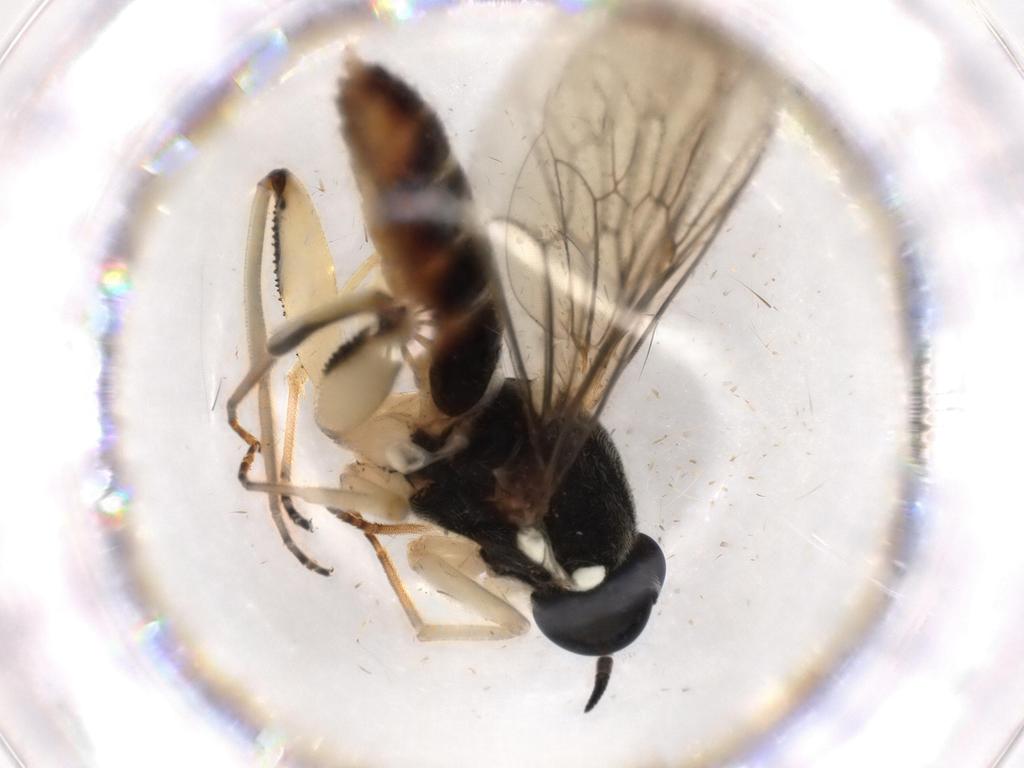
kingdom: Animalia
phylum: Arthropoda
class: Insecta
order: Diptera
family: Xylomyidae
